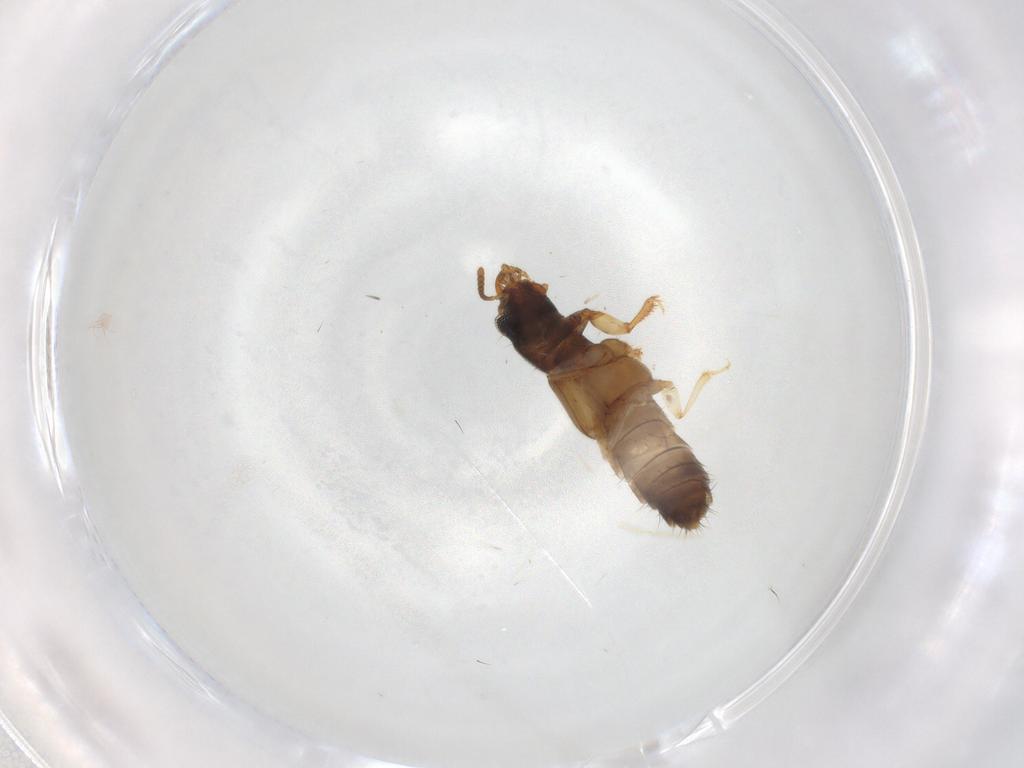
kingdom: Animalia
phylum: Arthropoda
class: Insecta
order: Coleoptera
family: Staphylinidae
